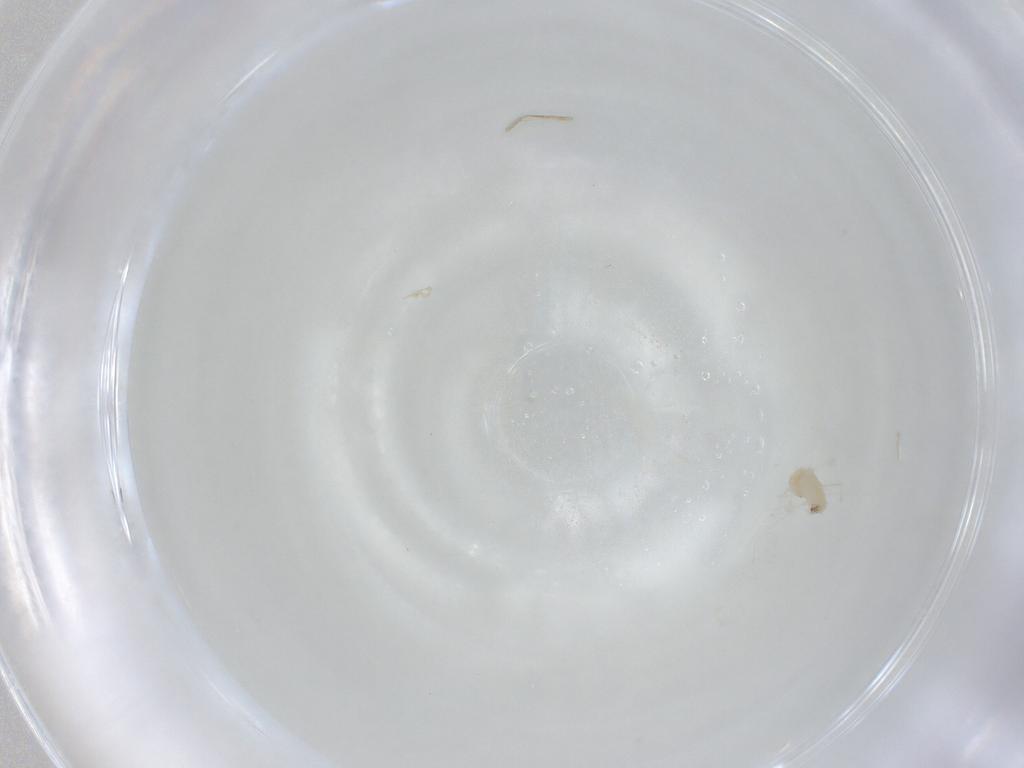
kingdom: Animalia
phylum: Arthropoda
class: Insecta
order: Diptera
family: Cecidomyiidae
